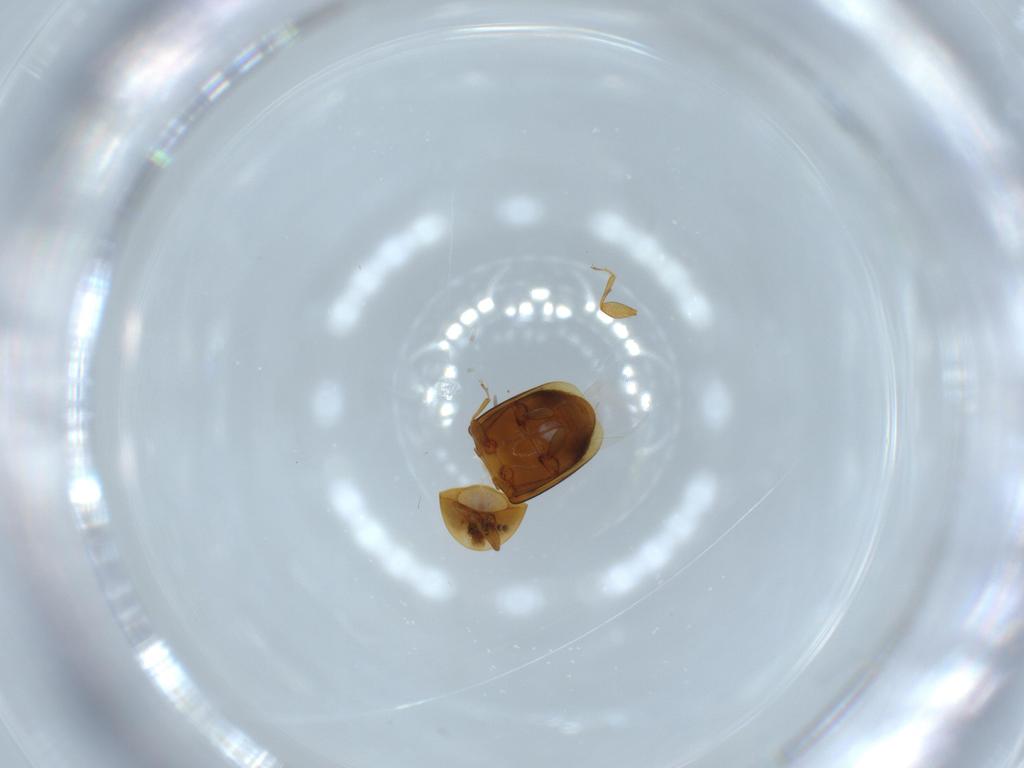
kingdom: Animalia
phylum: Arthropoda
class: Insecta
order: Coleoptera
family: Corylophidae
